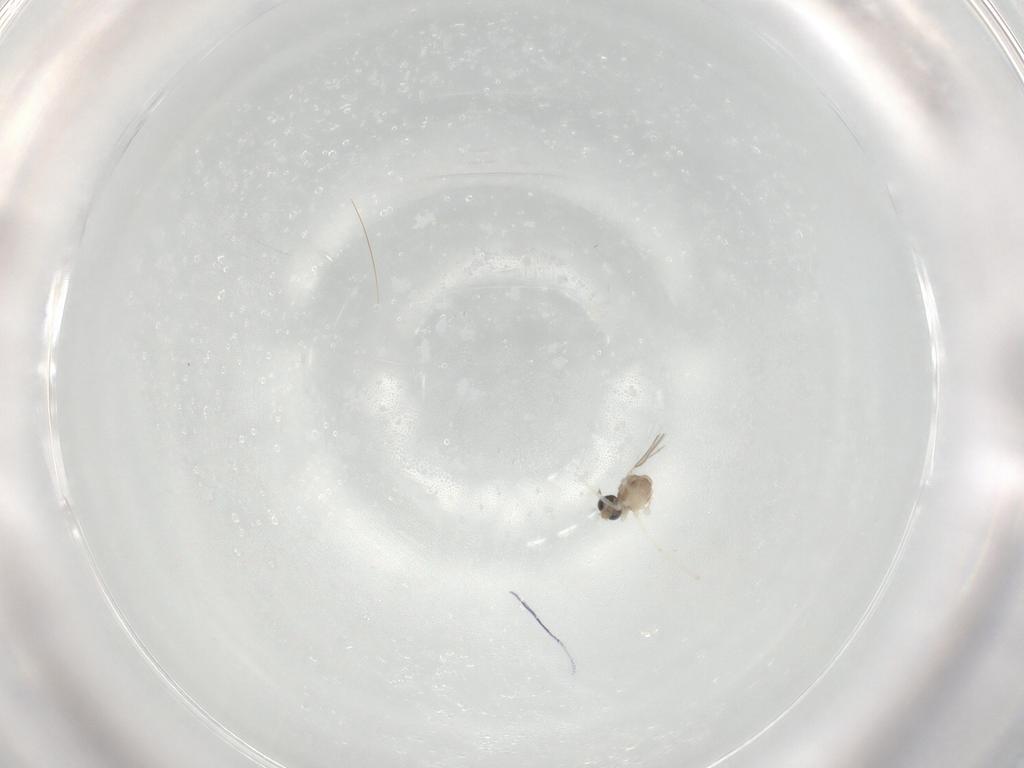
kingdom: Animalia
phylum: Arthropoda
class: Insecta
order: Diptera
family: Cecidomyiidae
